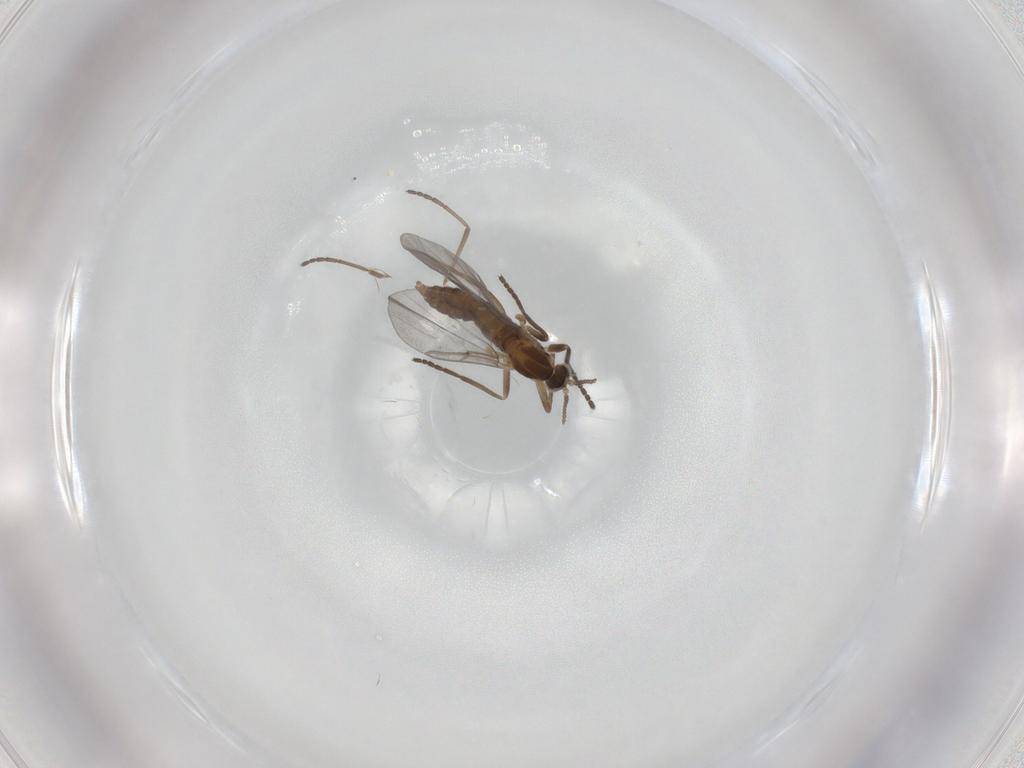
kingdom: Animalia
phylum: Arthropoda
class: Insecta
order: Diptera
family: Cecidomyiidae
